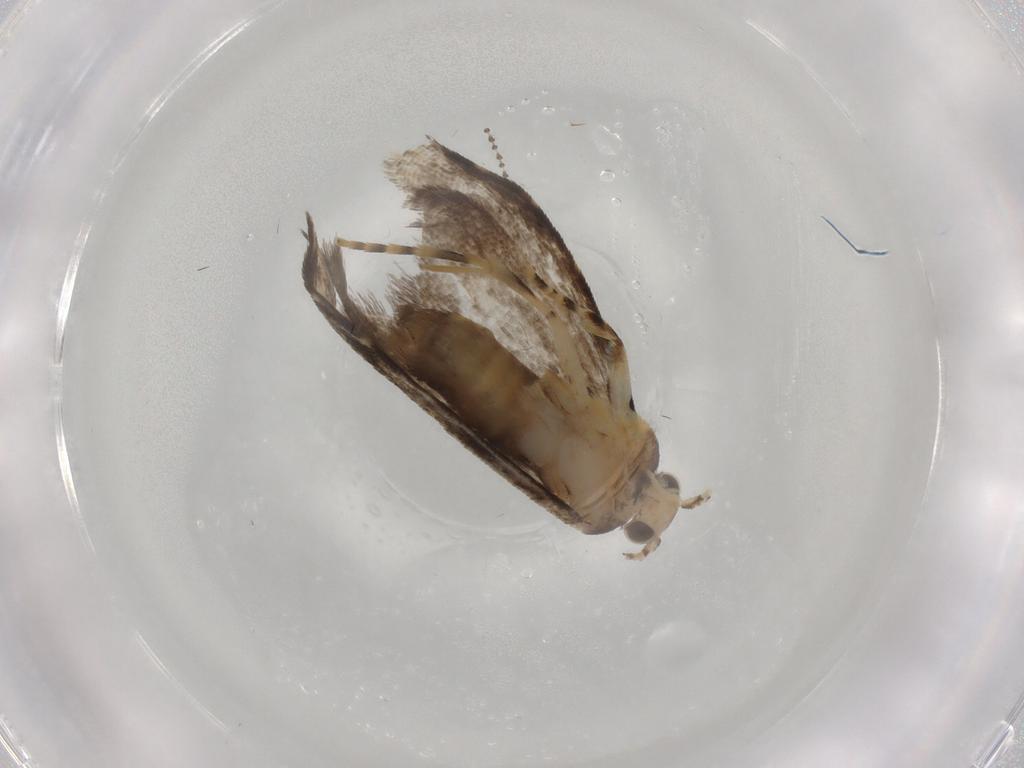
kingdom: Animalia
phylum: Arthropoda
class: Insecta
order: Lepidoptera
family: Tineidae
